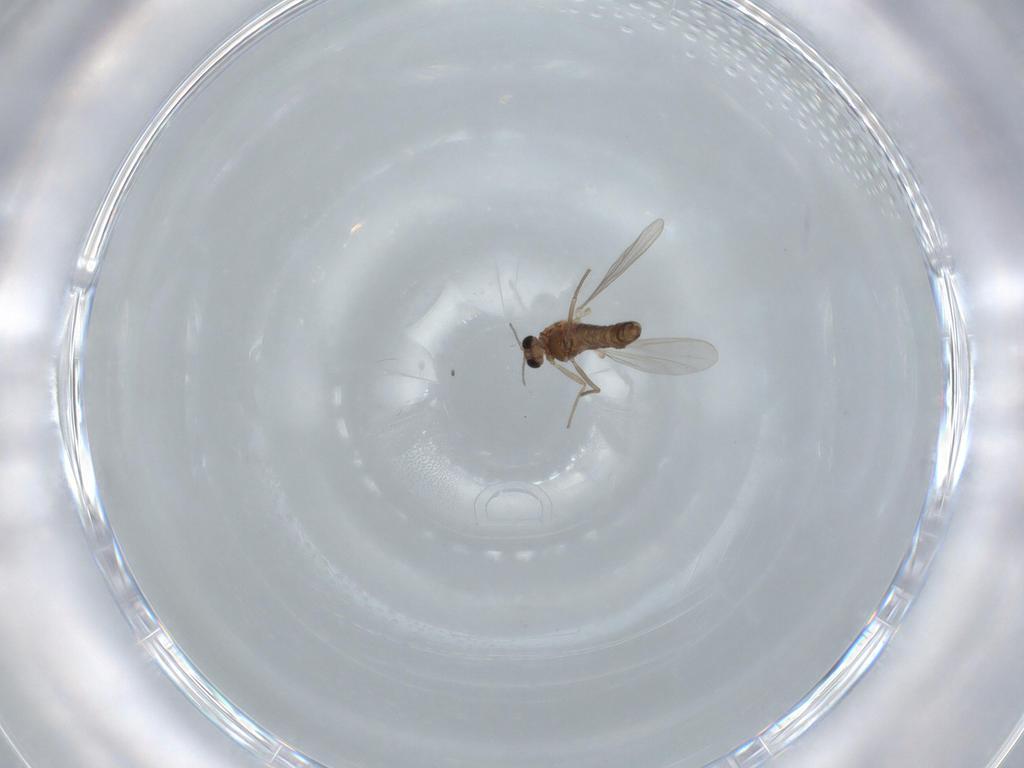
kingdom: Animalia
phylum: Arthropoda
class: Insecta
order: Diptera
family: Chironomidae
